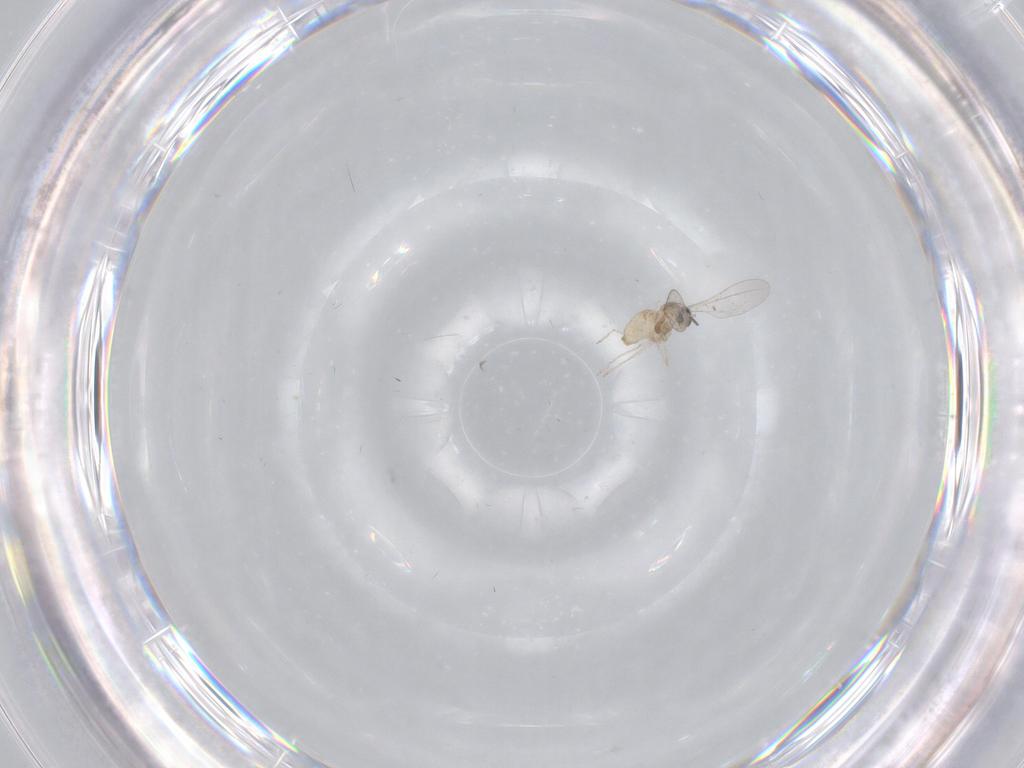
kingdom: Animalia
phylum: Arthropoda
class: Insecta
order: Diptera
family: Cecidomyiidae
